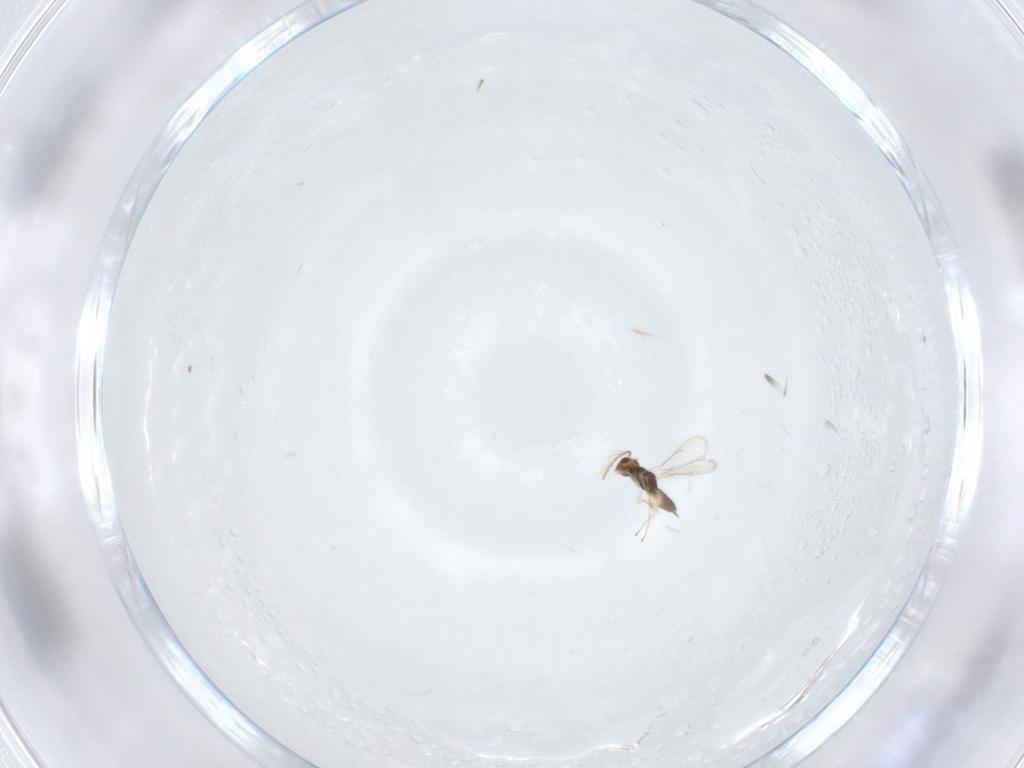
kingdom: Animalia
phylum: Arthropoda
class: Insecta
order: Hymenoptera
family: Eulophidae
